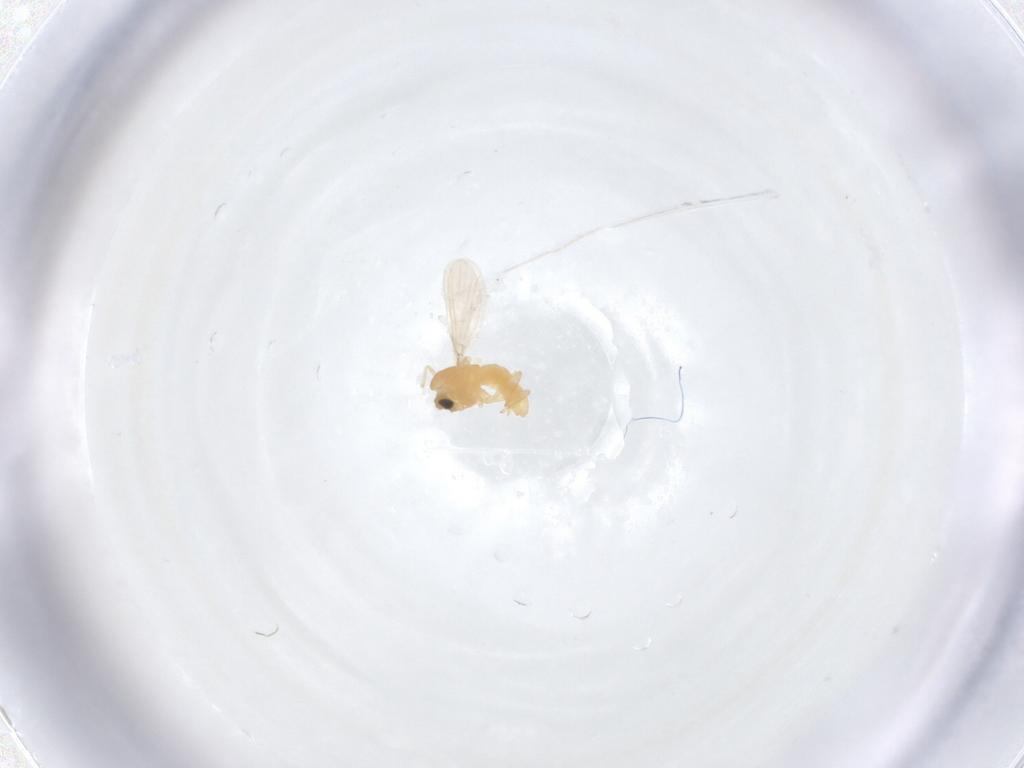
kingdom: Animalia
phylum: Arthropoda
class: Insecta
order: Diptera
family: Chironomidae
